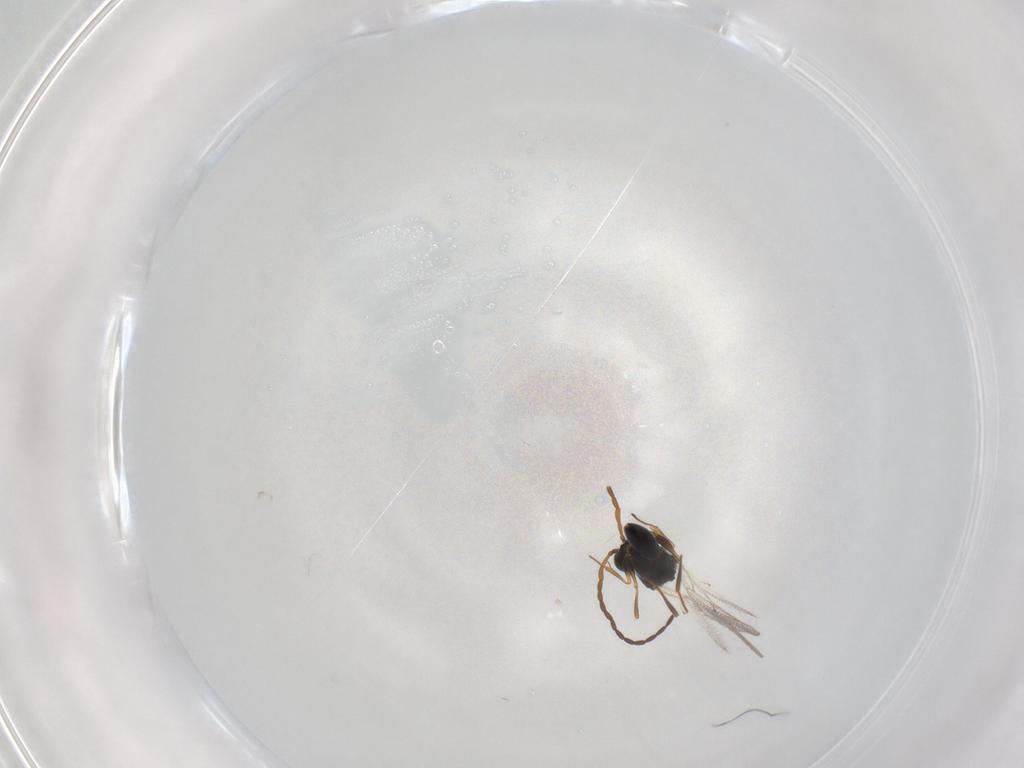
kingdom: Animalia
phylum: Arthropoda
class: Insecta
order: Hymenoptera
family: Figitidae
